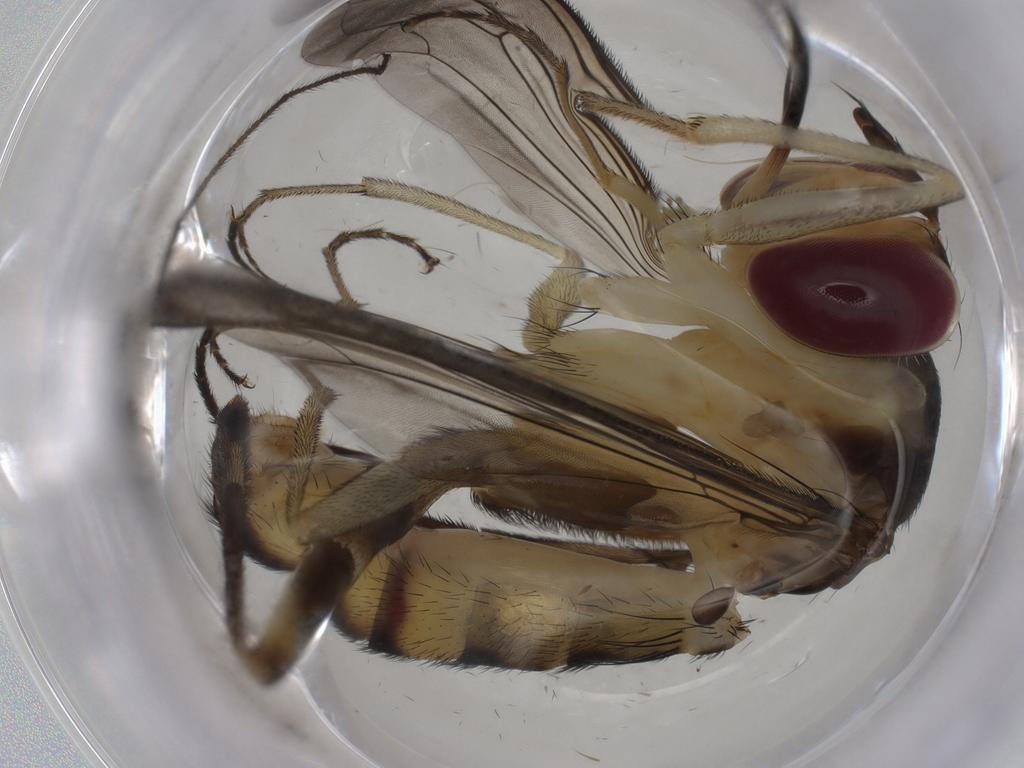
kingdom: Animalia
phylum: Arthropoda
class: Insecta
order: Diptera
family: Conopidae
